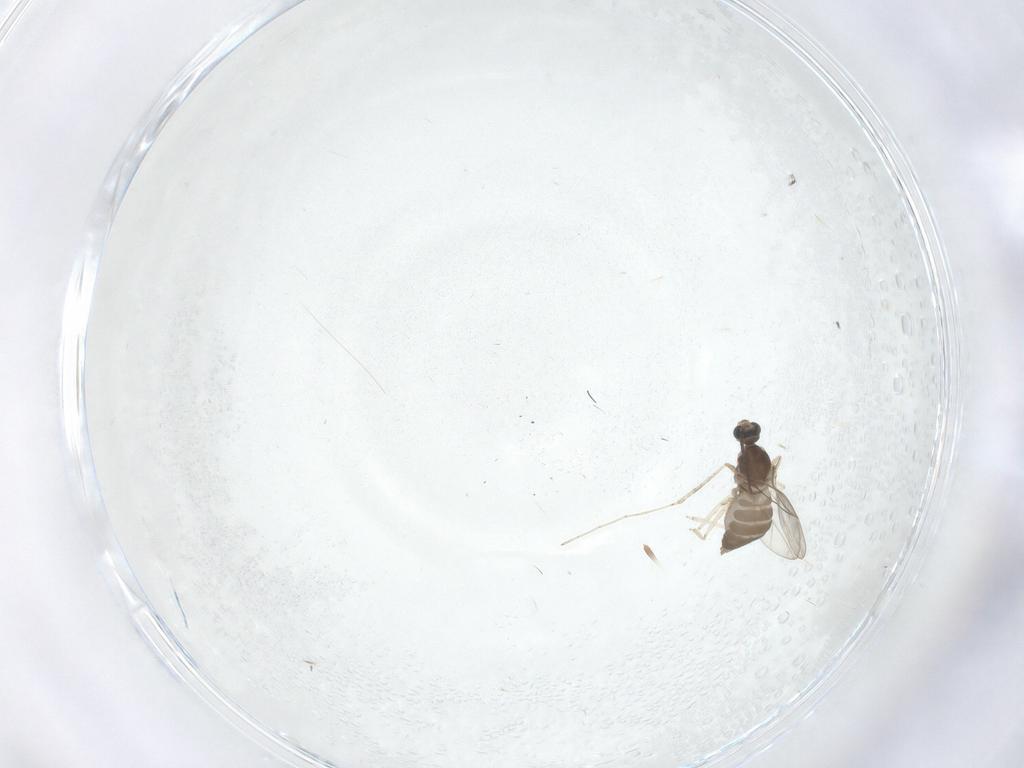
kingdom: Animalia
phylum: Arthropoda
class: Insecta
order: Diptera
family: Cecidomyiidae
